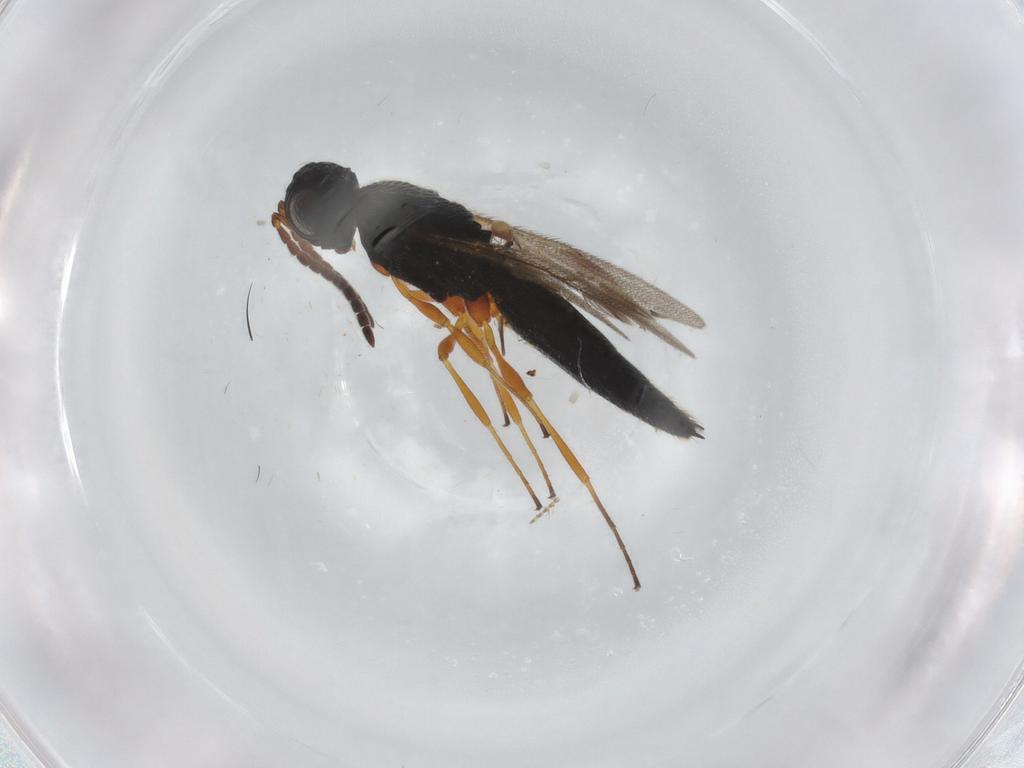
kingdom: Animalia
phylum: Arthropoda
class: Insecta
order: Hymenoptera
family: Scelionidae
